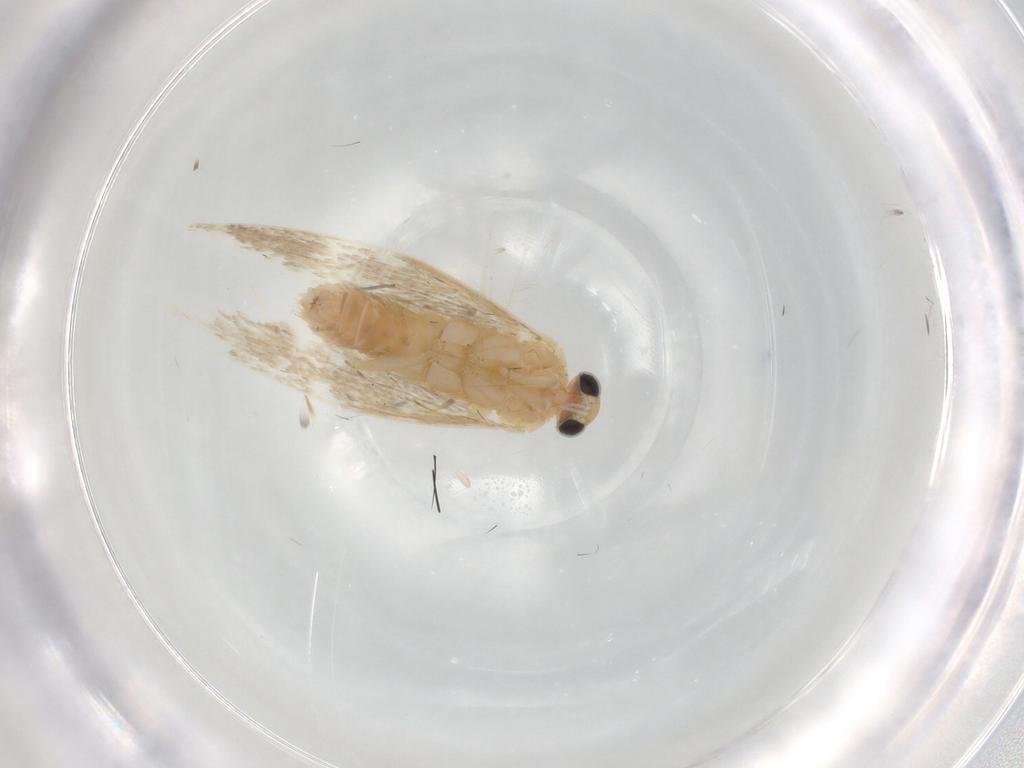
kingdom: Animalia
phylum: Arthropoda
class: Insecta
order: Lepidoptera
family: Bucculatricidae
